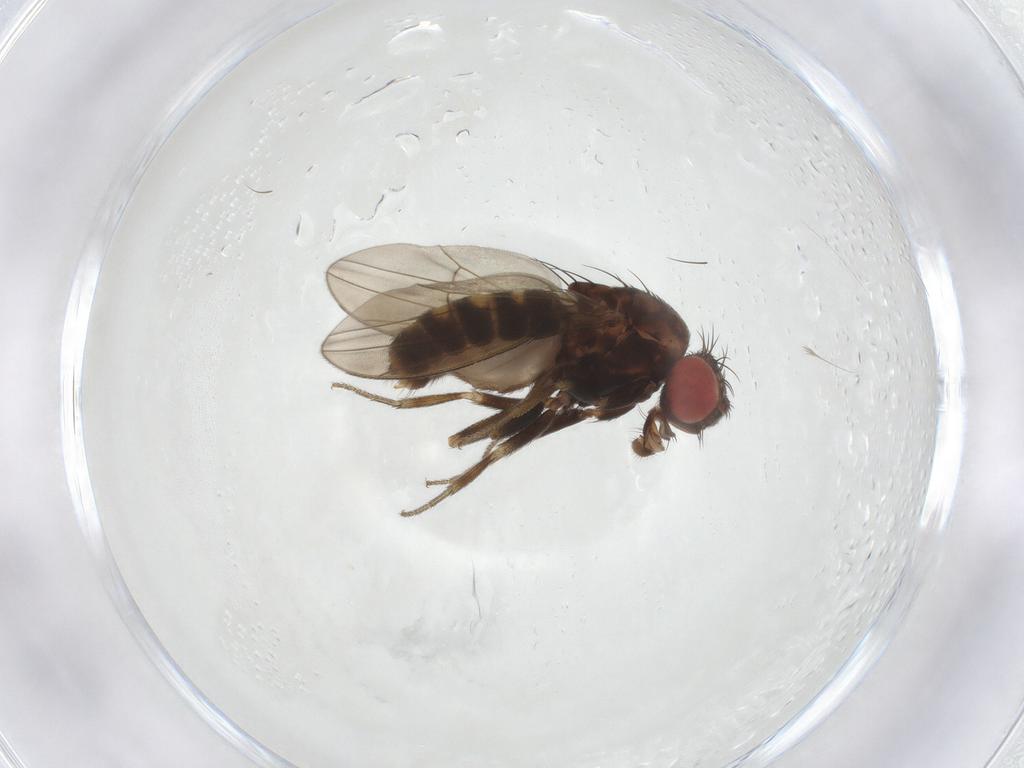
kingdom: Animalia
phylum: Arthropoda
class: Insecta
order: Diptera
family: Drosophilidae
